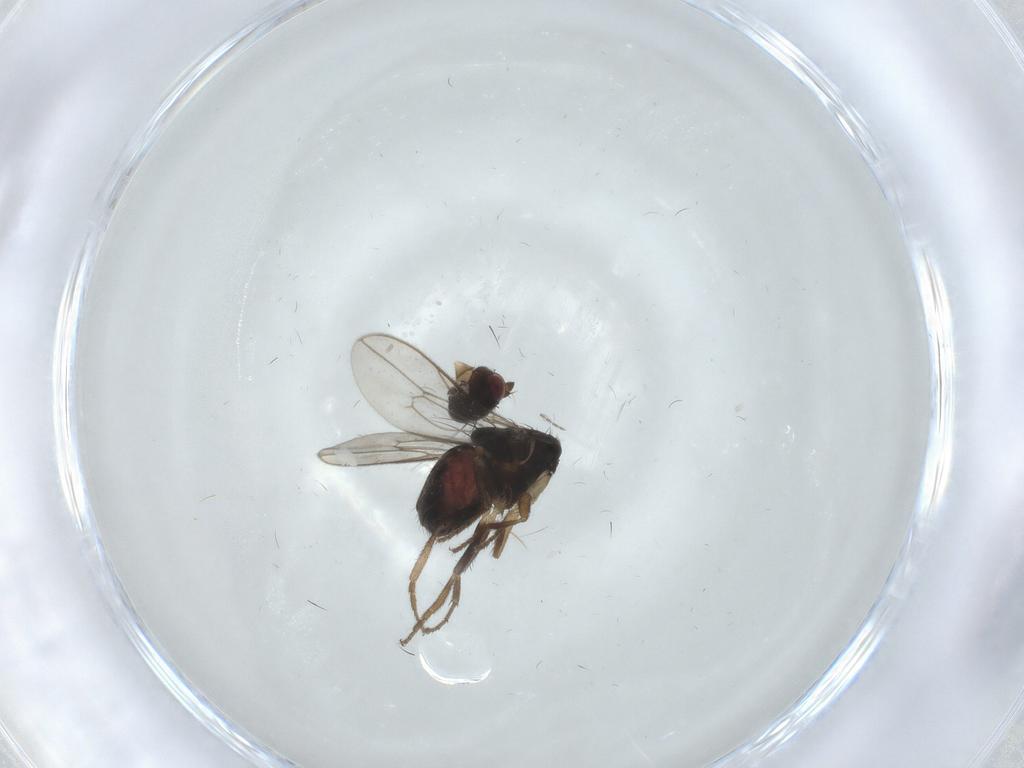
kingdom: Animalia
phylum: Arthropoda
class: Insecta
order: Diptera
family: Sphaeroceridae
